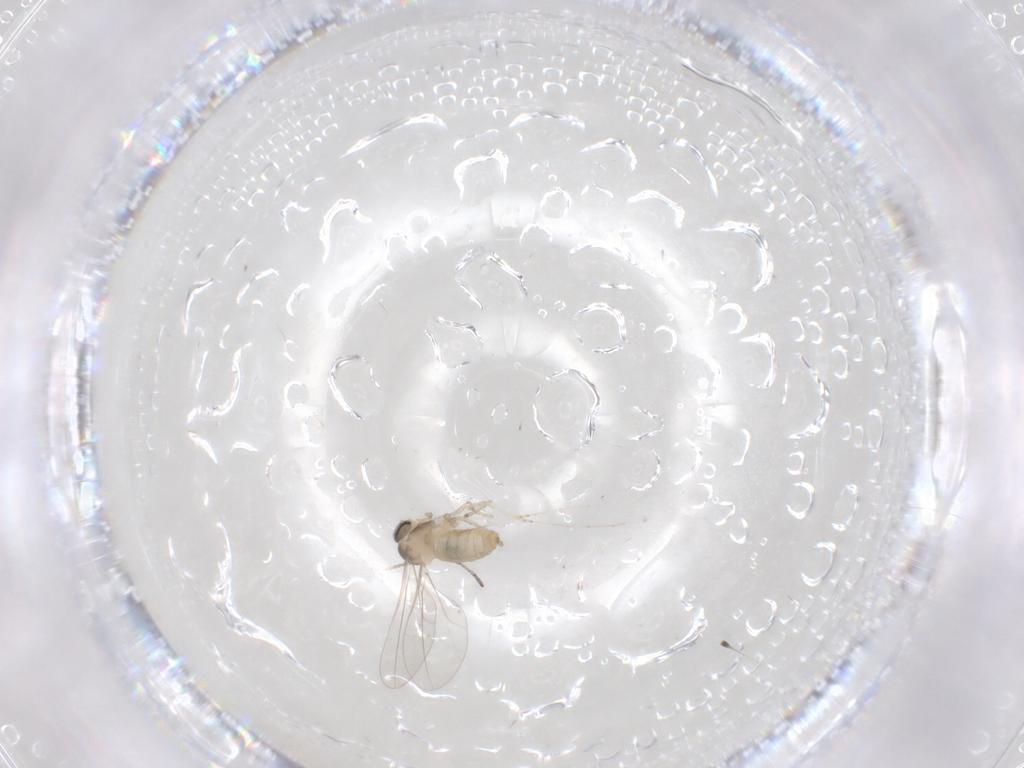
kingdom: Animalia
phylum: Arthropoda
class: Insecta
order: Diptera
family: Cecidomyiidae
